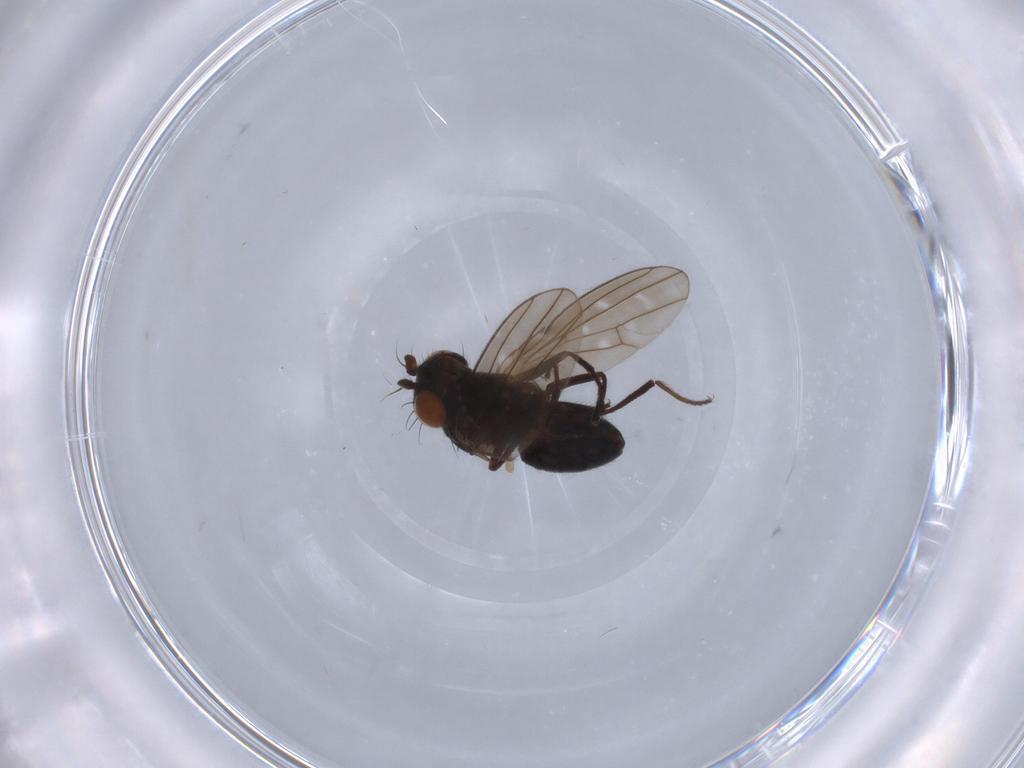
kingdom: Animalia
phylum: Arthropoda
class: Insecta
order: Diptera
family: Ephydridae
